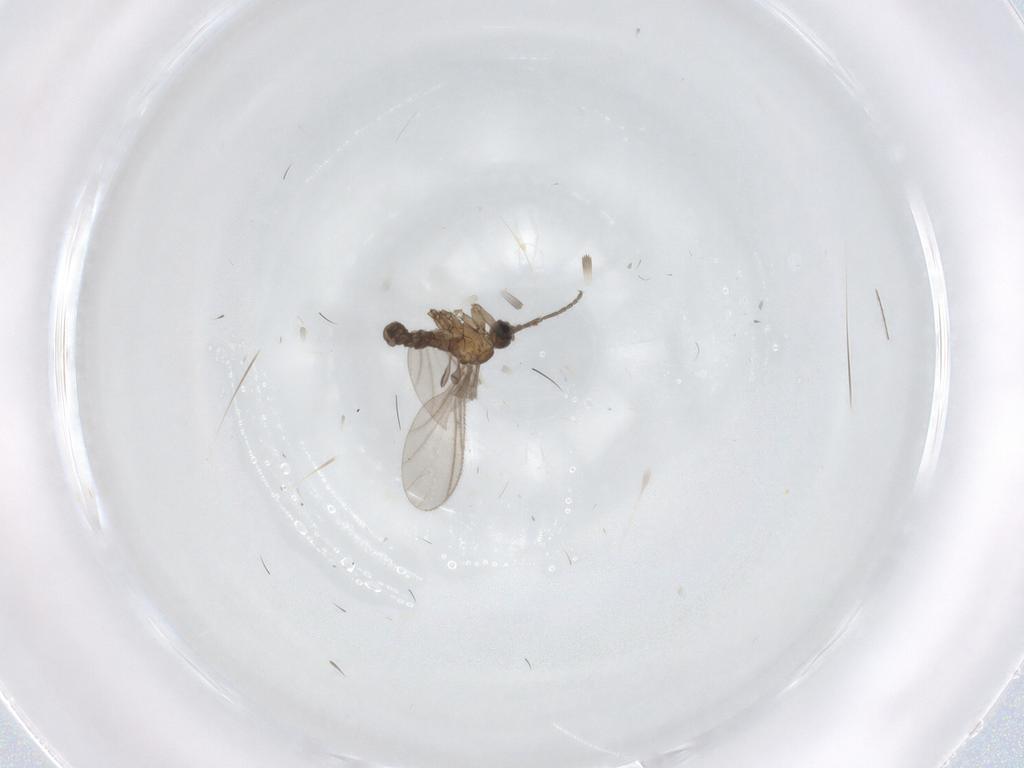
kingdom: Animalia
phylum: Arthropoda
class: Insecta
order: Diptera
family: Sciaridae
